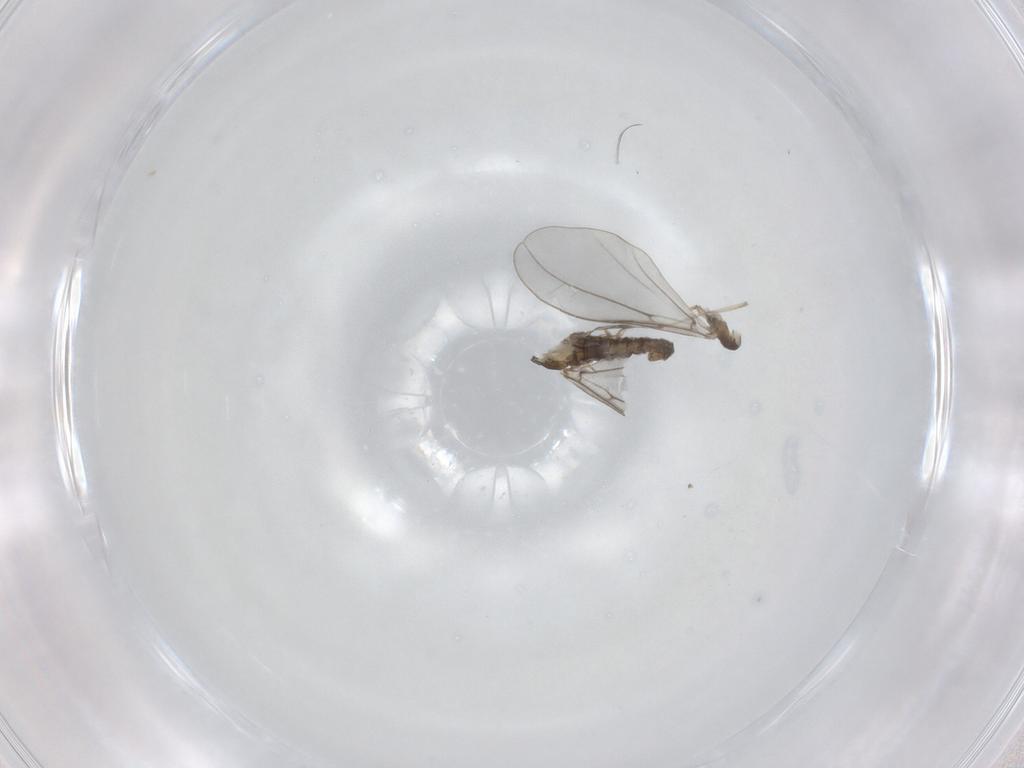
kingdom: Animalia
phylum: Arthropoda
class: Insecta
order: Diptera
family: Cecidomyiidae
